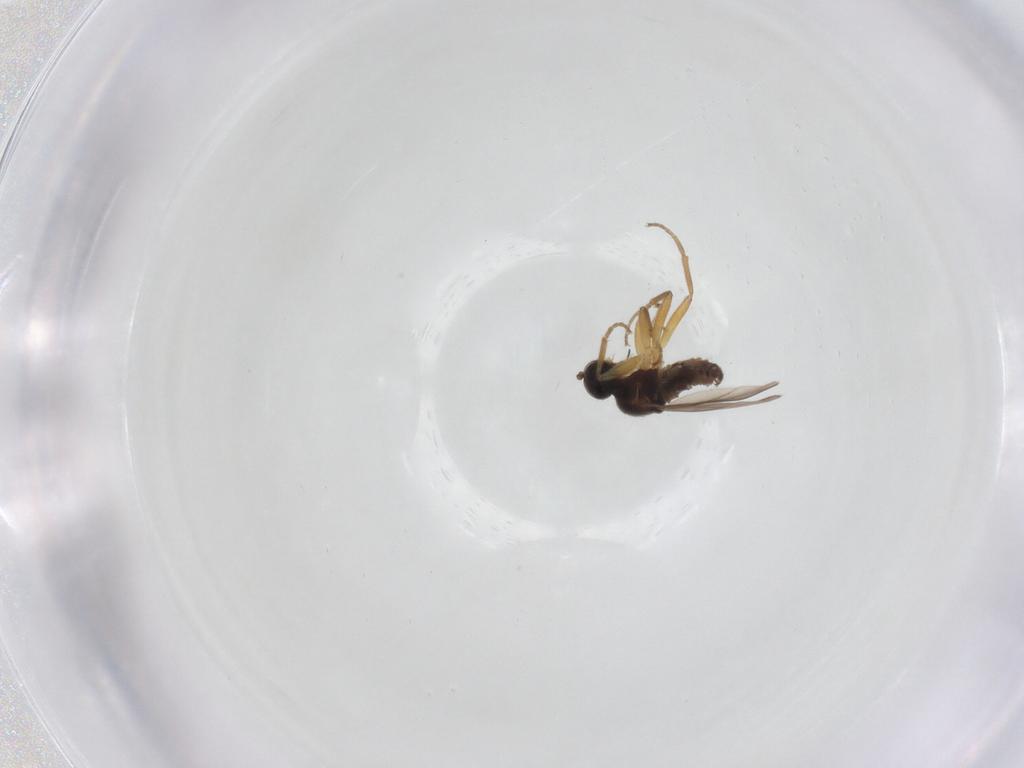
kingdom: Animalia
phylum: Arthropoda
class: Insecta
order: Diptera
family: Hybotidae
